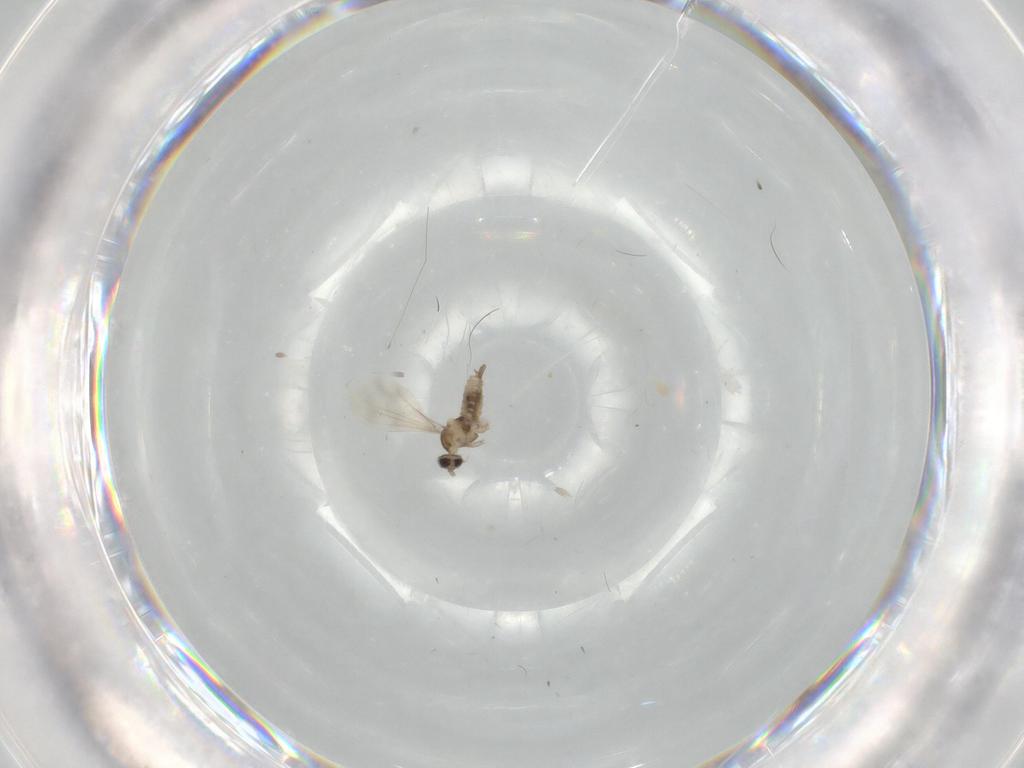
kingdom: Animalia
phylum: Arthropoda
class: Insecta
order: Diptera
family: Cecidomyiidae
